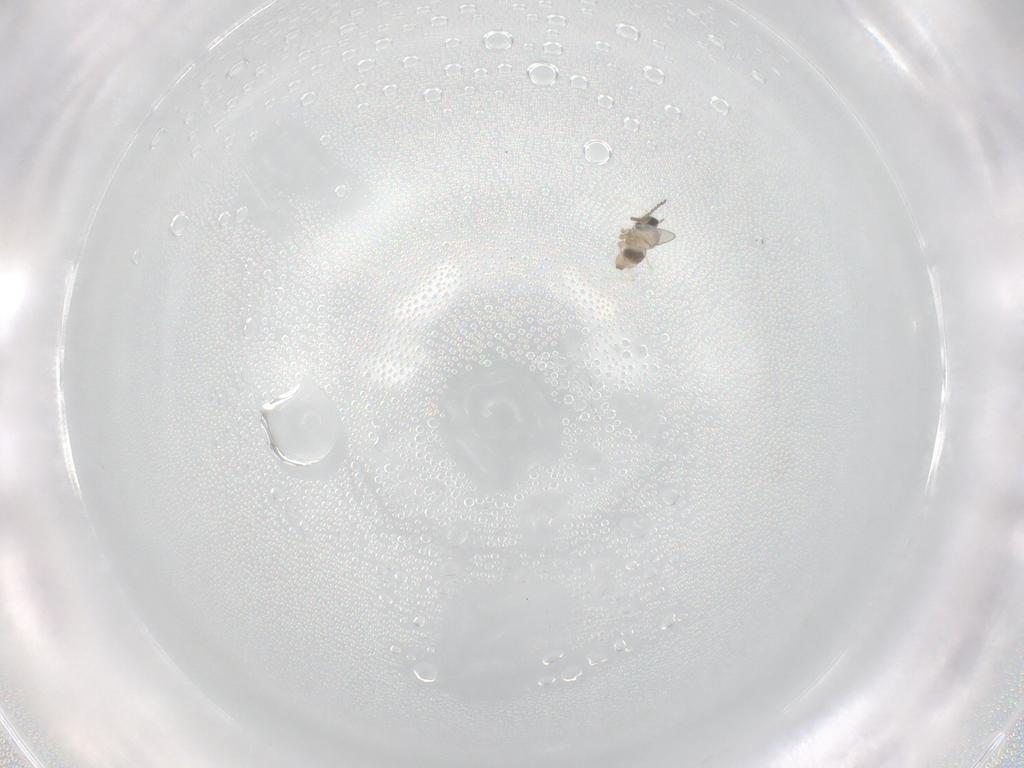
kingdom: Animalia
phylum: Arthropoda
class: Insecta
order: Diptera
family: Cecidomyiidae
